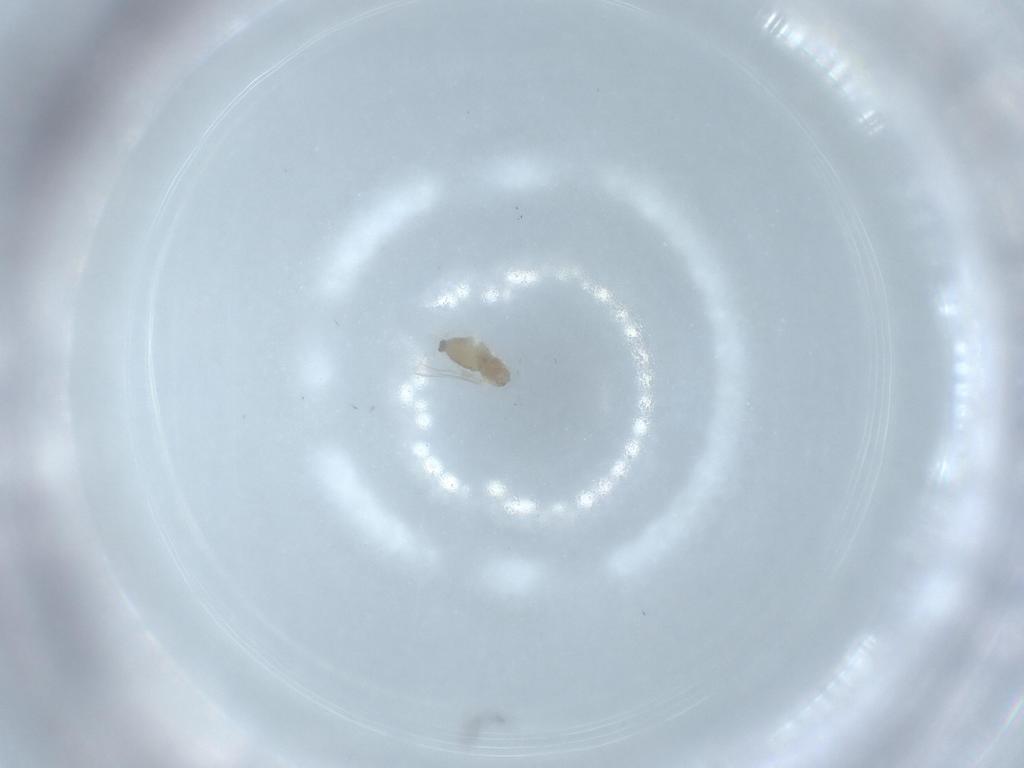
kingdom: Animalia
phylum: Arthropoda
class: Insecta
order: Diptera
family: Cecidomyiidae
